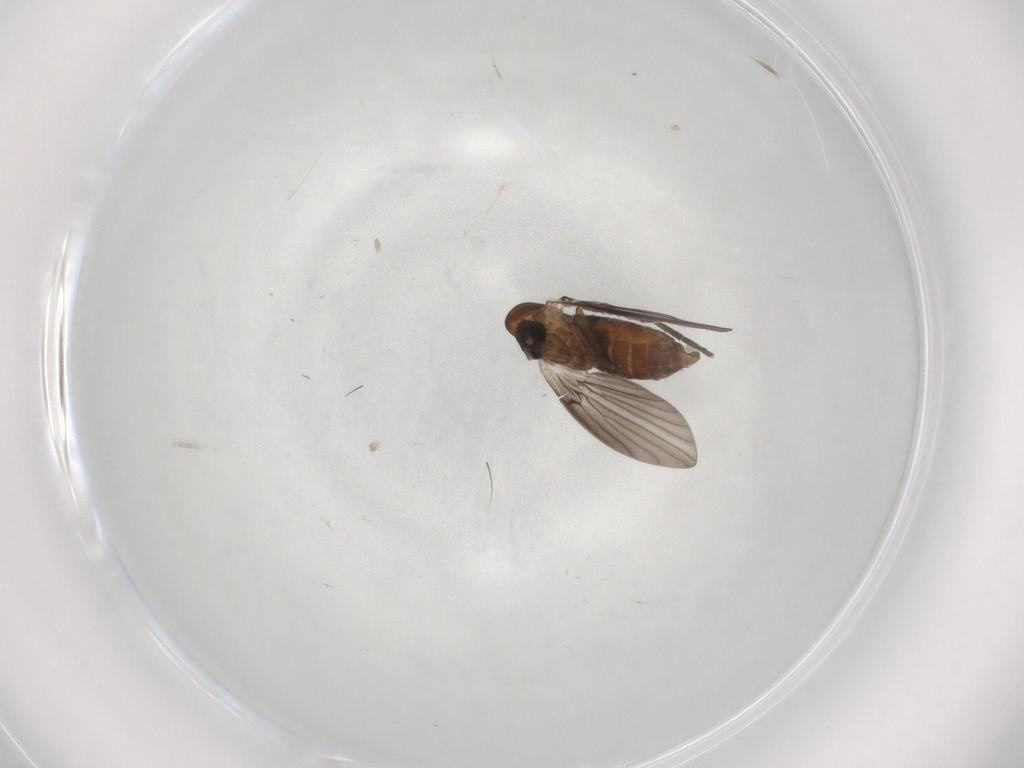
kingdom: Animalia
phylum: Arthropoda
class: Insecta
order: Diptera
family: Psychodidae
